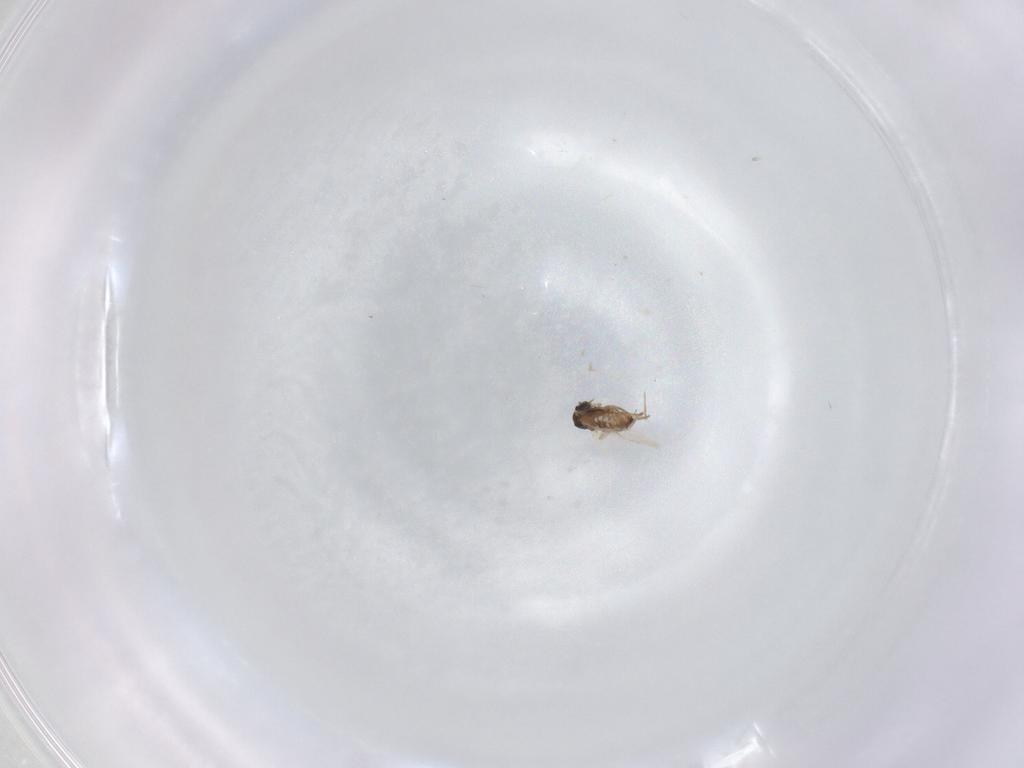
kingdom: Animalia
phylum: Arthropoda
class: Insecta
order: Diptera
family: Cecidomyiidae
